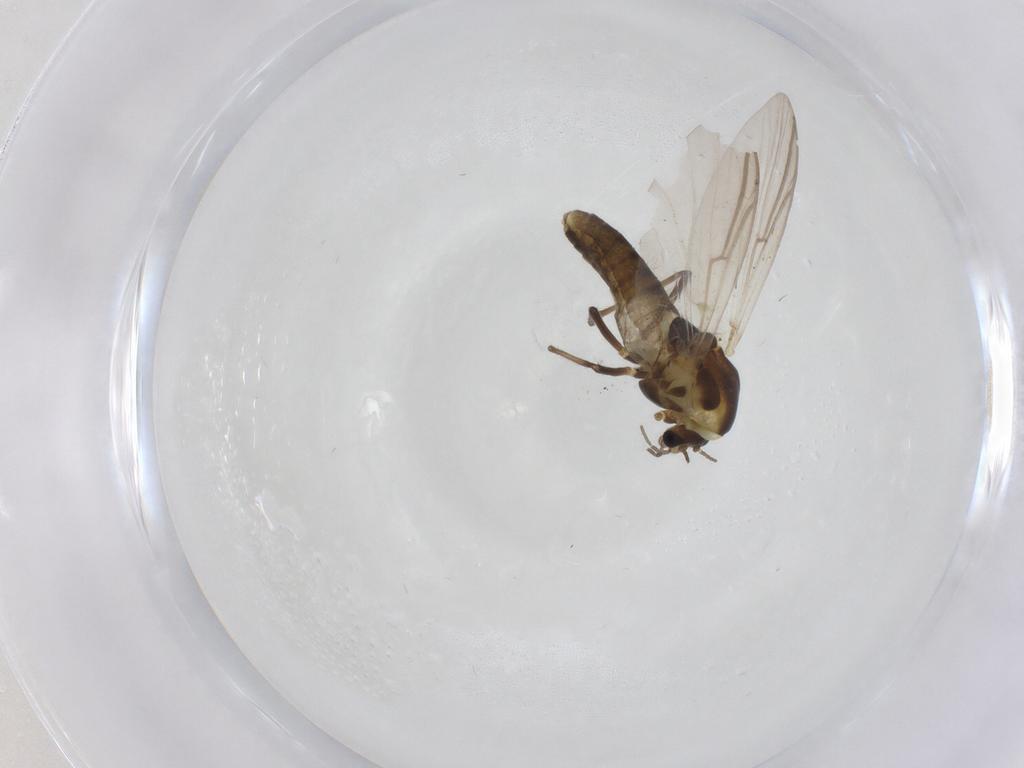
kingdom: Animalia
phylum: Arthropoda
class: Insecta
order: Diptera
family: Chironomidae
